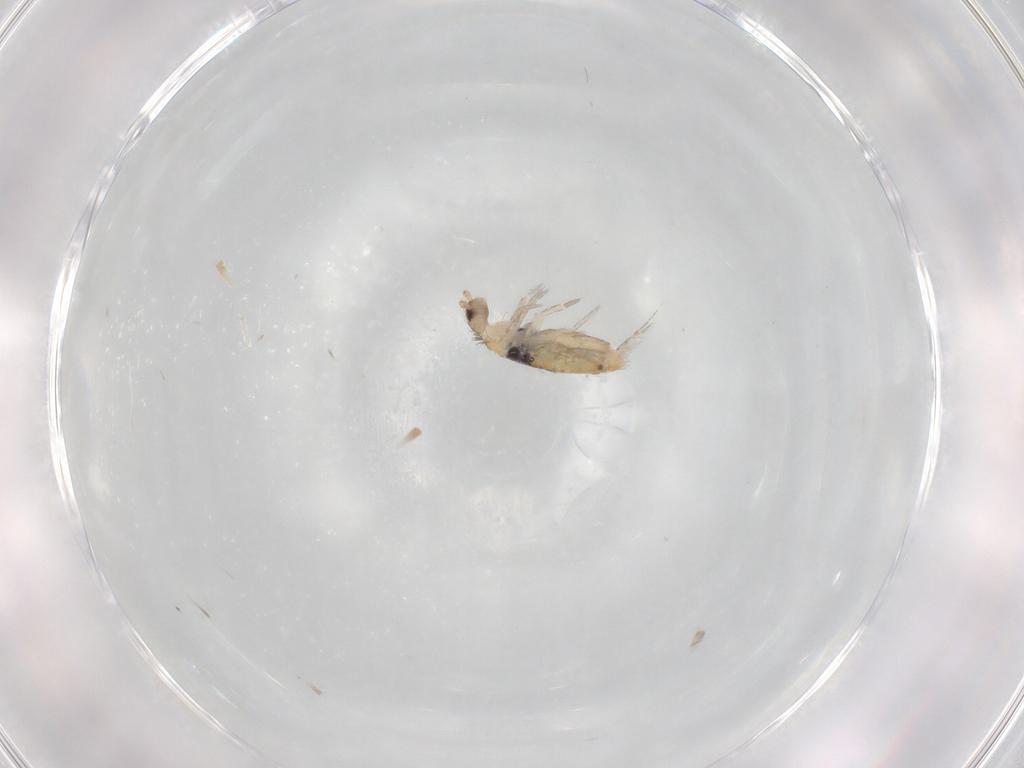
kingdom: Animalia
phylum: Arthropoda
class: Collembola
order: Entomobryomorpha
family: Entomobryidae
